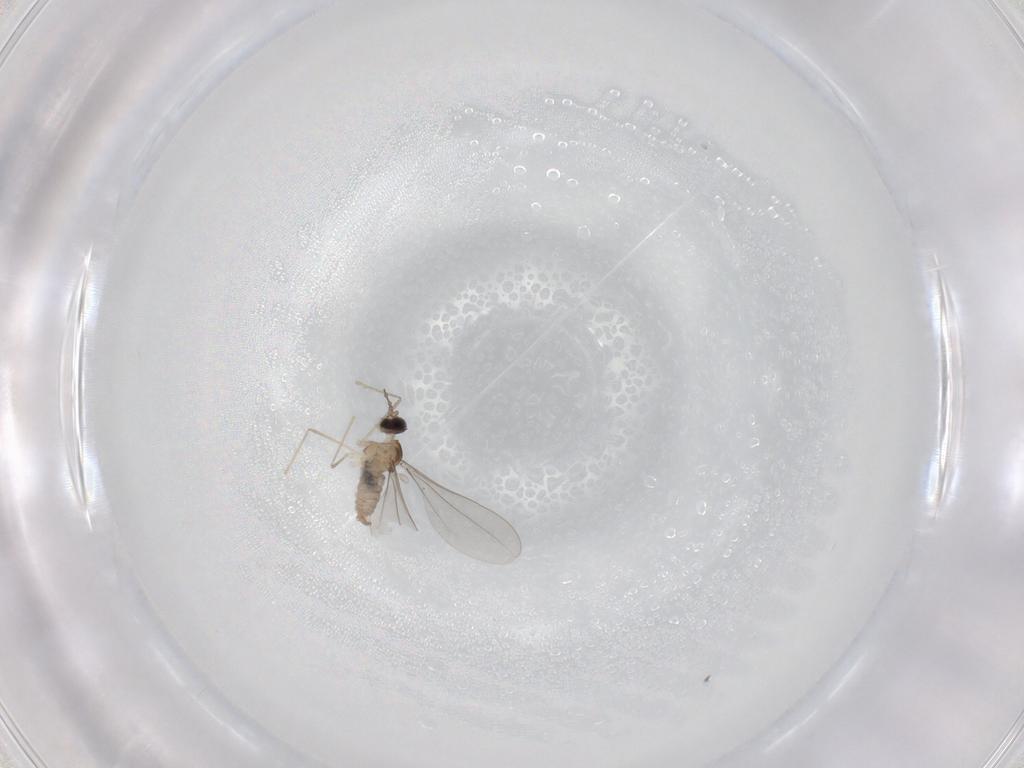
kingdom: Animalia
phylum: Arthropoda
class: Insecta
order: Diptera
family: Cecidomyiidae
